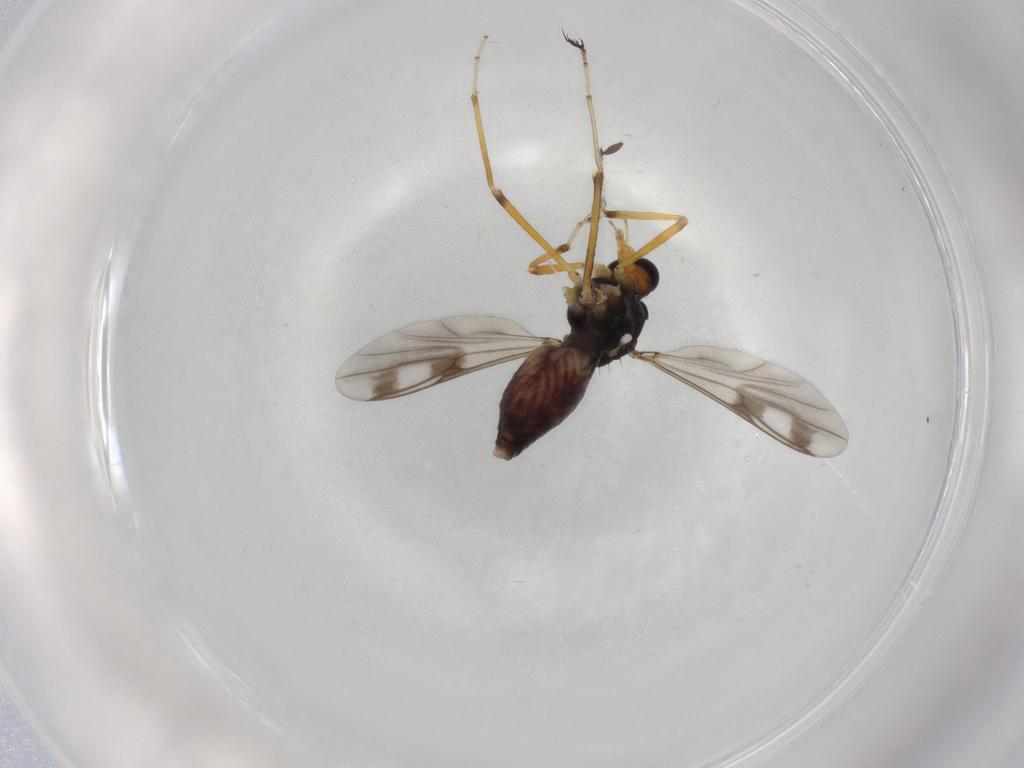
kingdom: Animalia
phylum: Arthropoda
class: Insecta
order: Diptera
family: Ceratopogonidae
